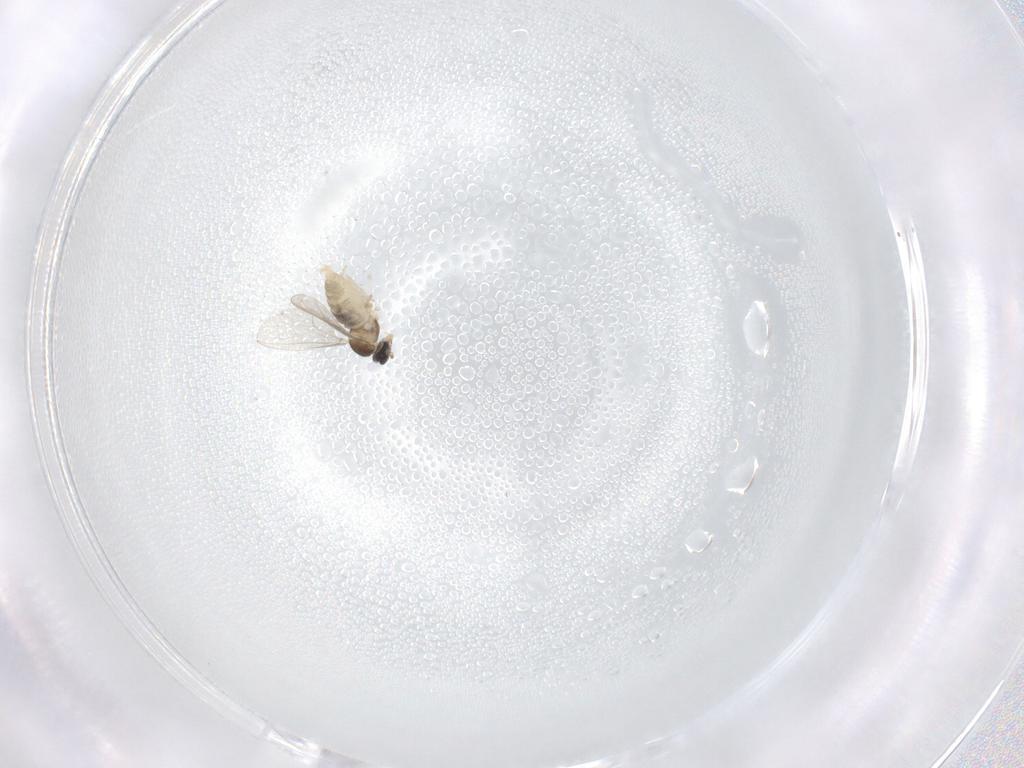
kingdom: Animalia
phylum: Arthropoda
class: Insecta
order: Diptera
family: Cecidomyiidae
